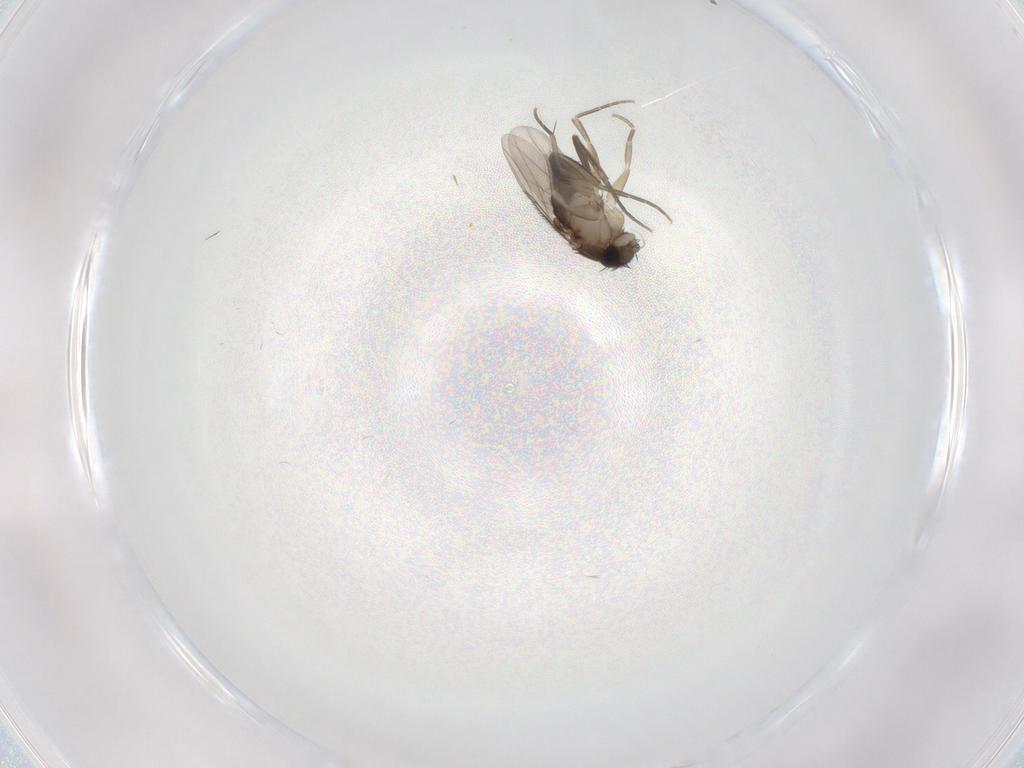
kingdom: Animalia
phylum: Arthropoda
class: Insecta
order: Diptera
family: Phoridae
